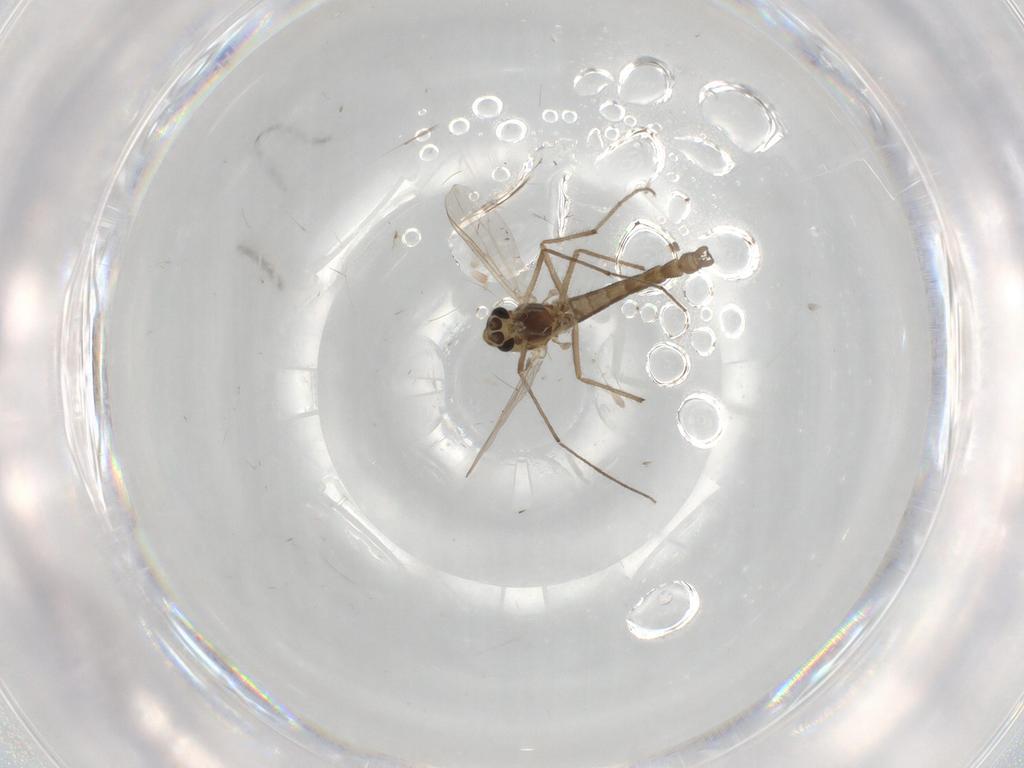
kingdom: Animalia
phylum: Arthropoda
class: Insecta
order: Diptera
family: Chironomidae
